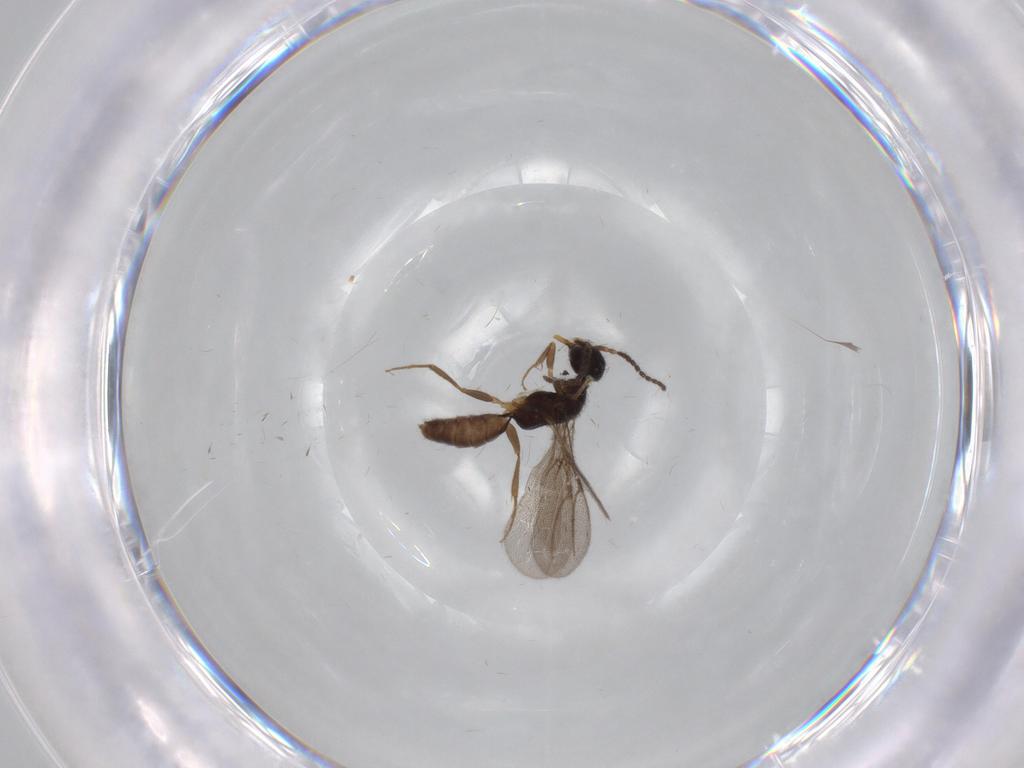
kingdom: Animalia
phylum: Arthropoda
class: Insecta
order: Hymenoptera
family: Bethylidae
